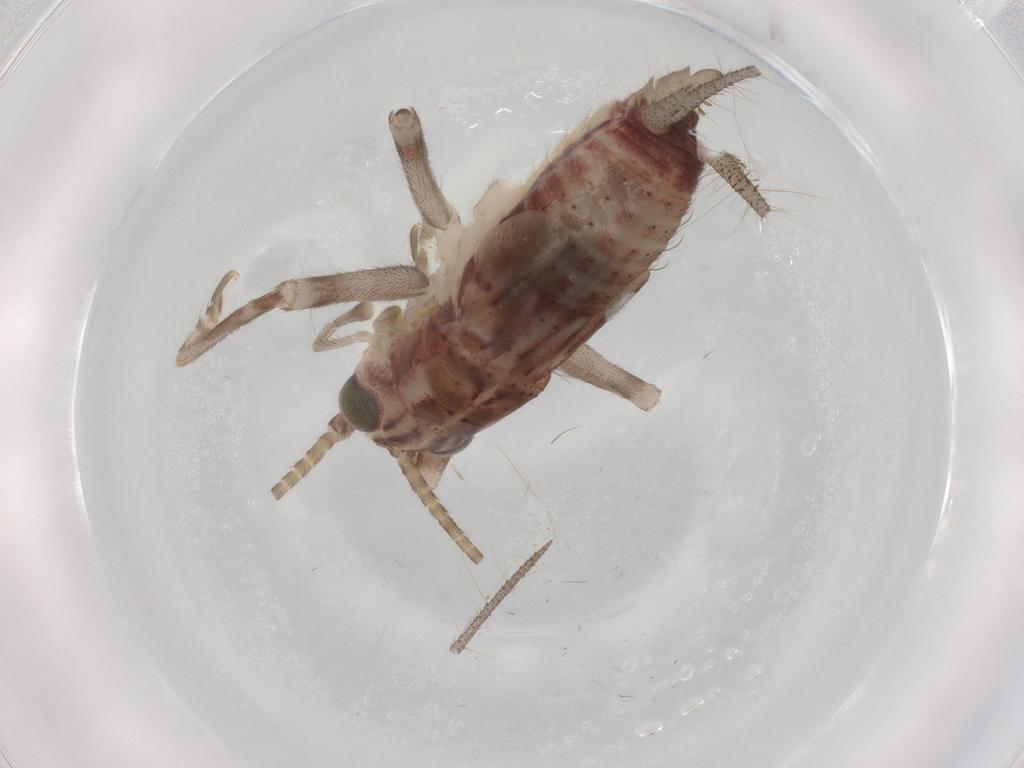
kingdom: Animalia
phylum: Arthropoda
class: Insecta
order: Orthoptera
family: Trigonidiidae
